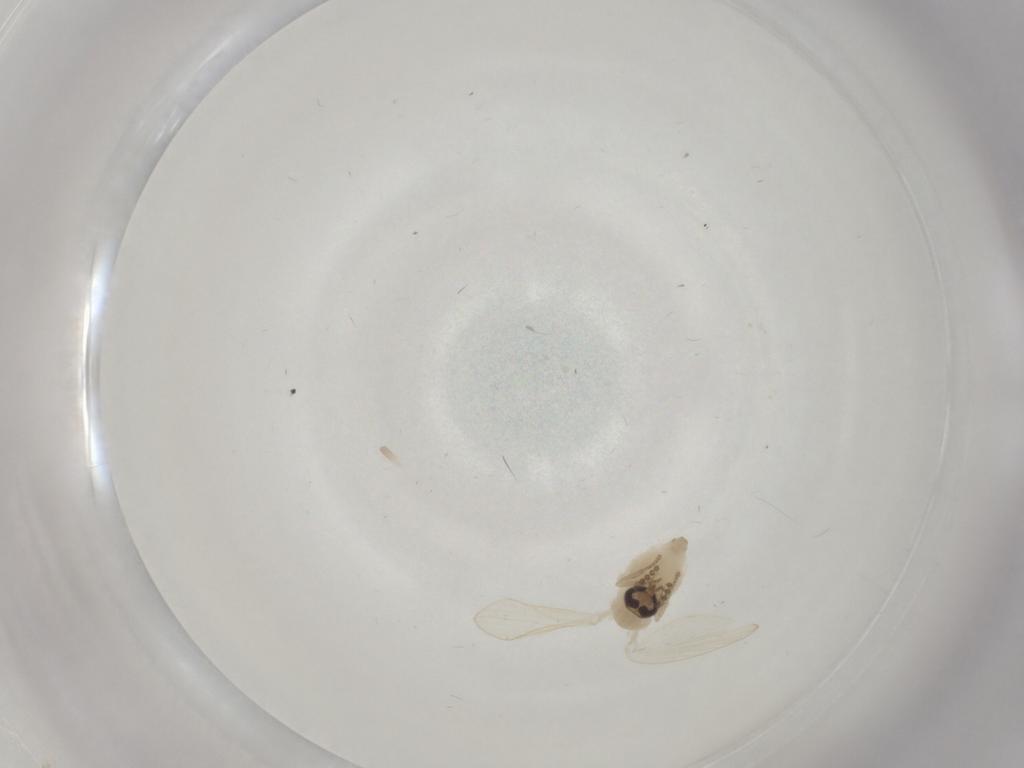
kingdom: Animalia
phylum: Arthropoda
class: Insecta
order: Diptera
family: Psychodidae
